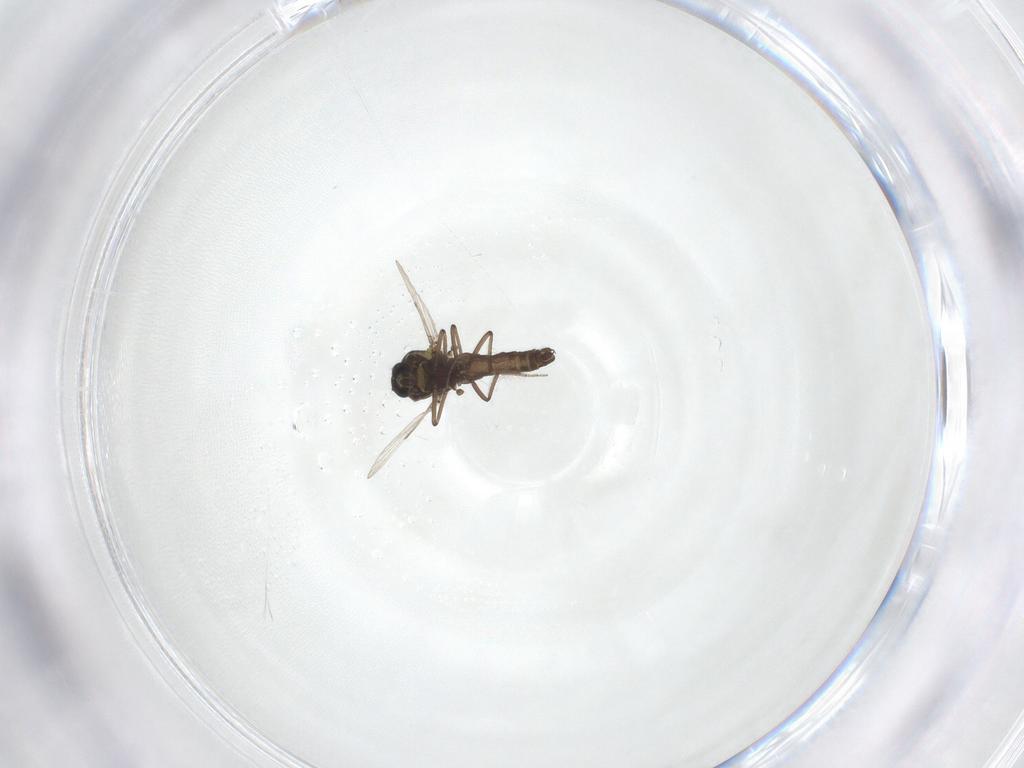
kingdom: Animalia
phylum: Arthropoda
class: Insecta
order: Diptera
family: Ceratopogonidae
